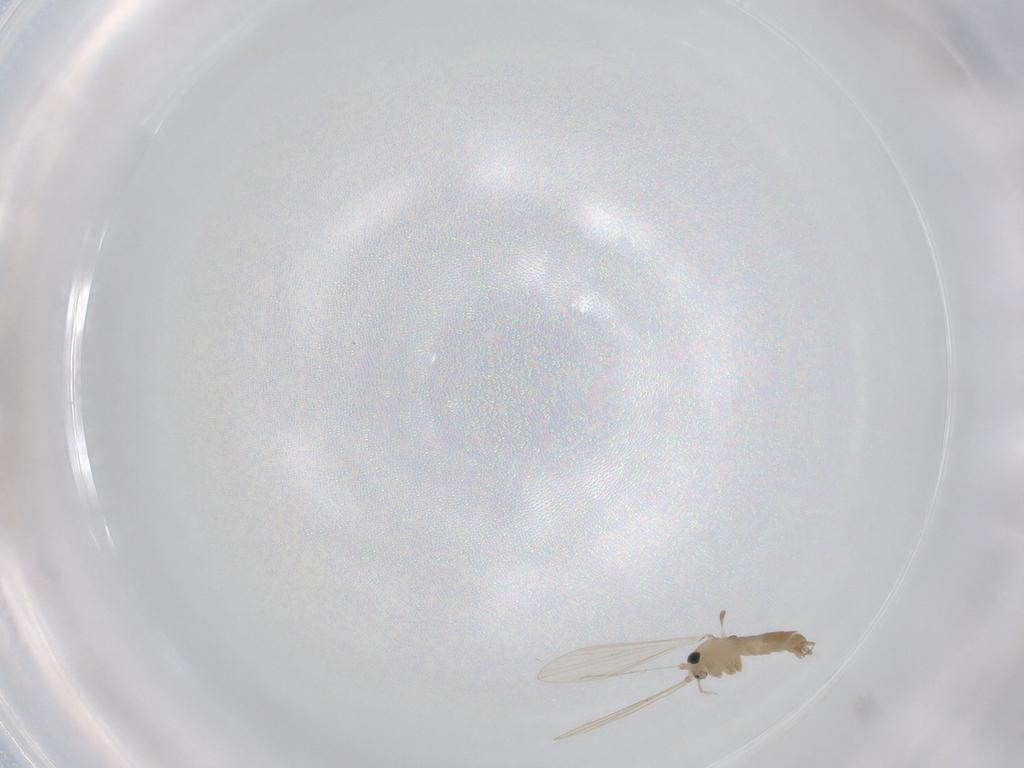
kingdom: Animalia
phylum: Arthropoda
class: Insecta
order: Diptera
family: Psychodidae
